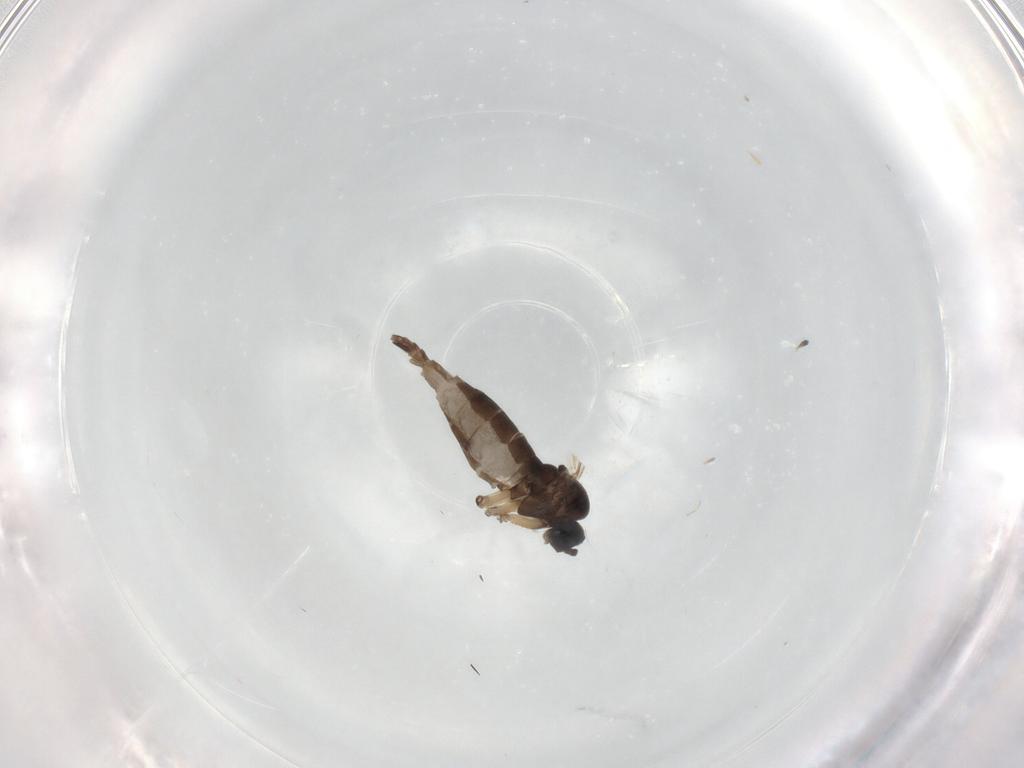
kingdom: Animalia
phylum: Arthropoda
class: Insecta
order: Diptera
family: Sciaridae
